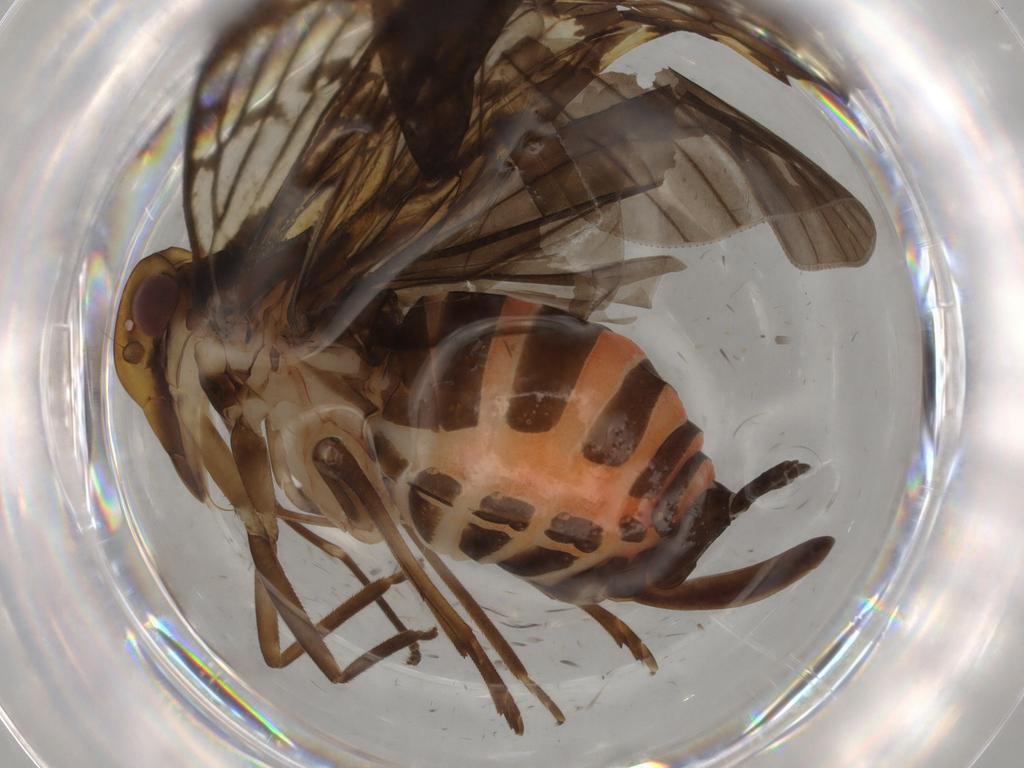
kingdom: Animalia
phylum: Arthropoda
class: Insecta
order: Hemiptera
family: Cixiidae
